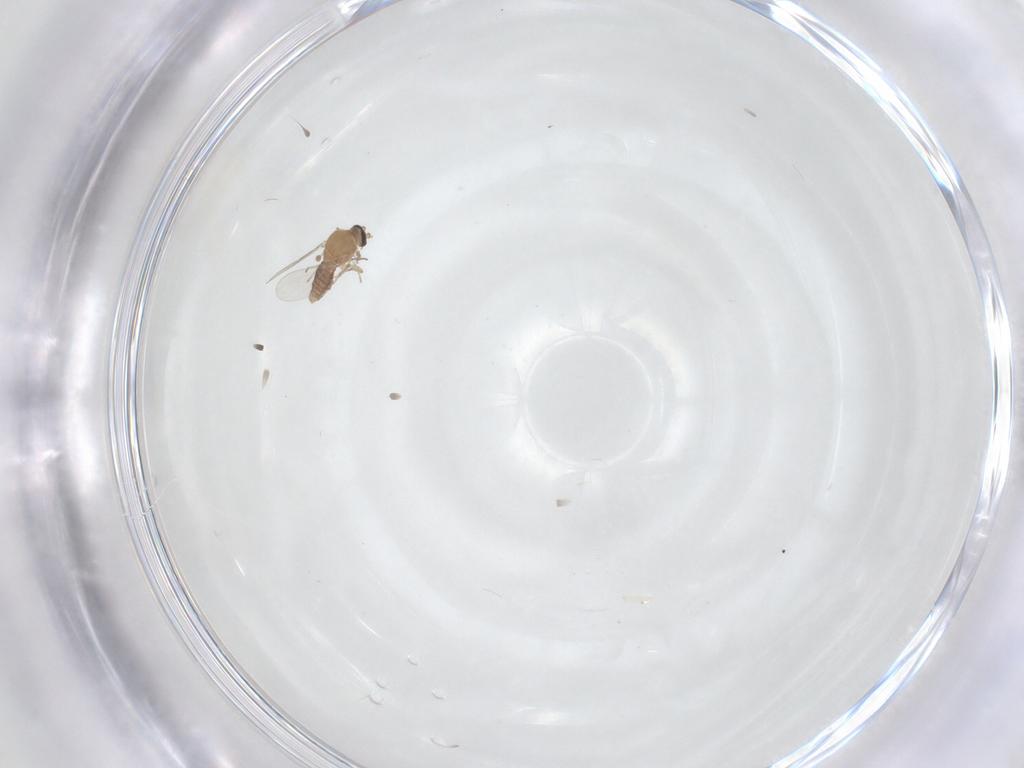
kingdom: Animalia
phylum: Arthropoda
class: Insecta
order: Diptera
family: Ceratopogonidae
